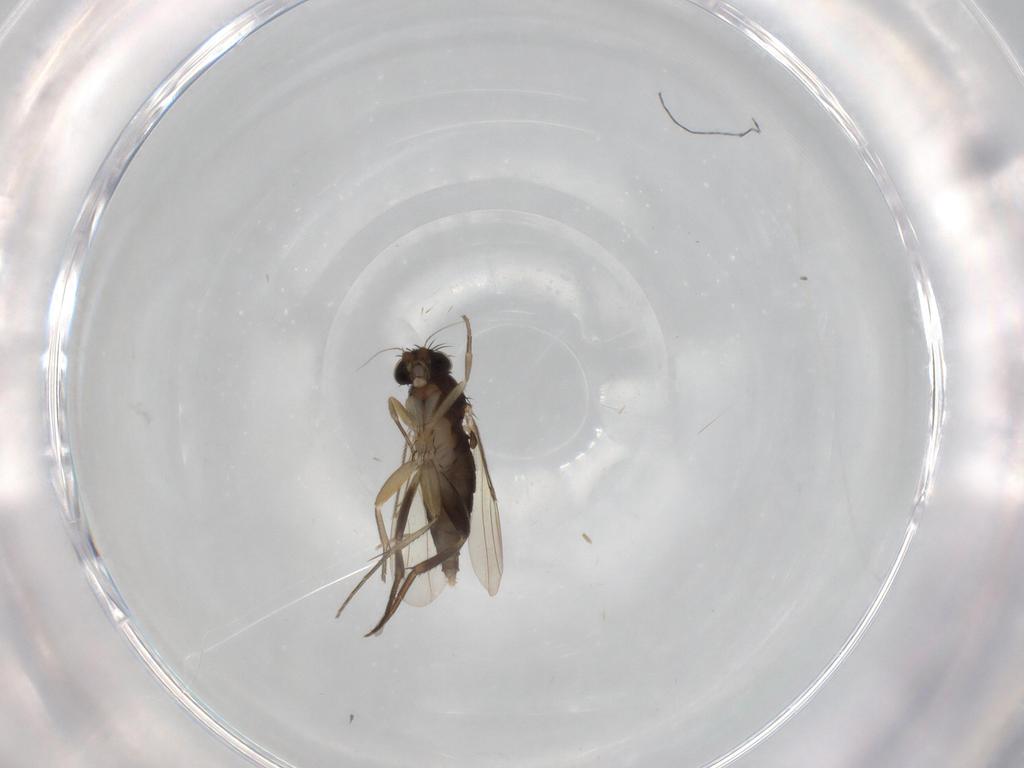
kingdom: Animalia
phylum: Arthropoda
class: Insecta
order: Diptera
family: Phoridae
